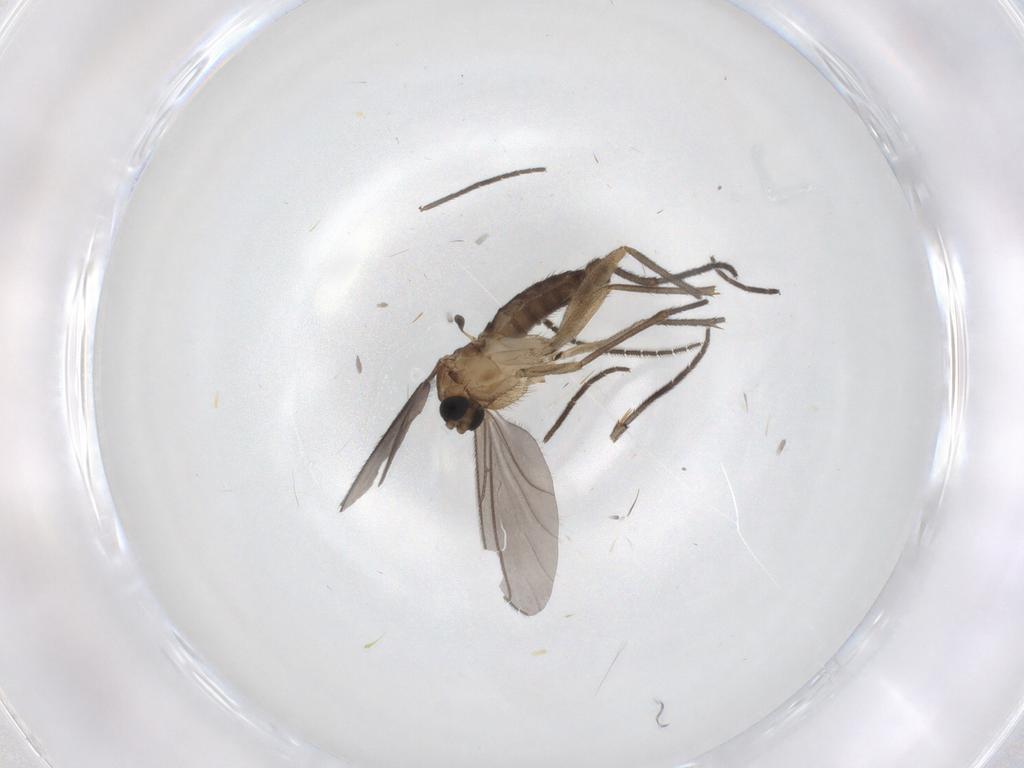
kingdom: Animalia
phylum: Arthropoda
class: Insecta
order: Diptera
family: Sciaridae
